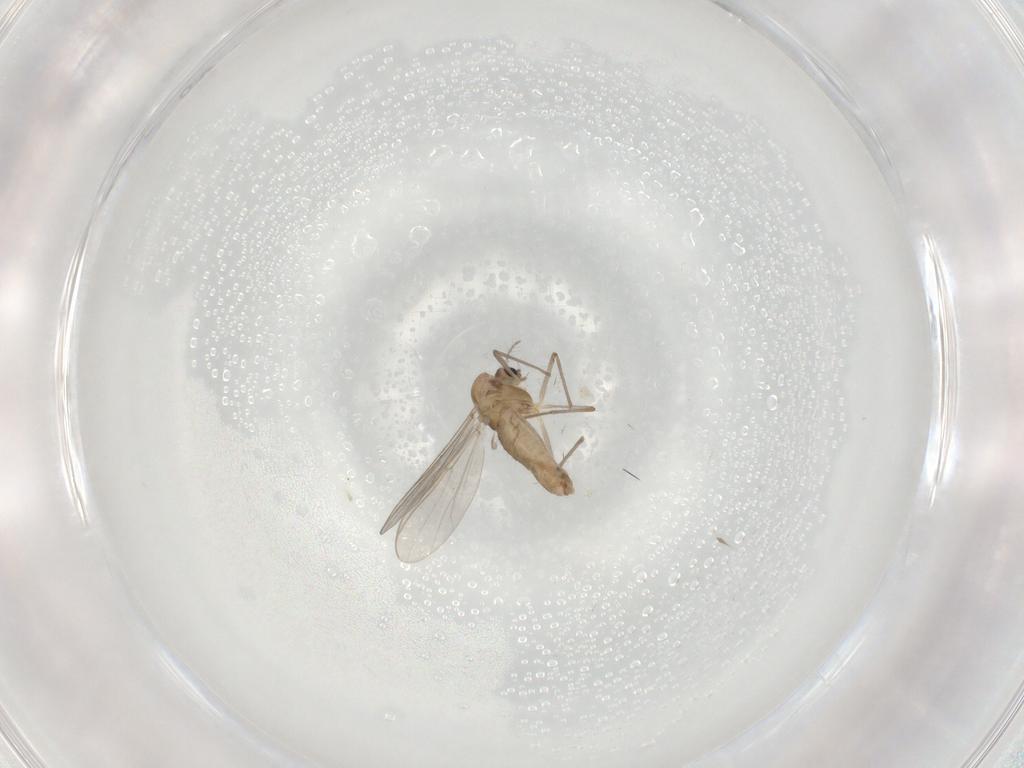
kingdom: Animalia
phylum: Arthropoda
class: Insecta
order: Diptera
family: Chironomidae
